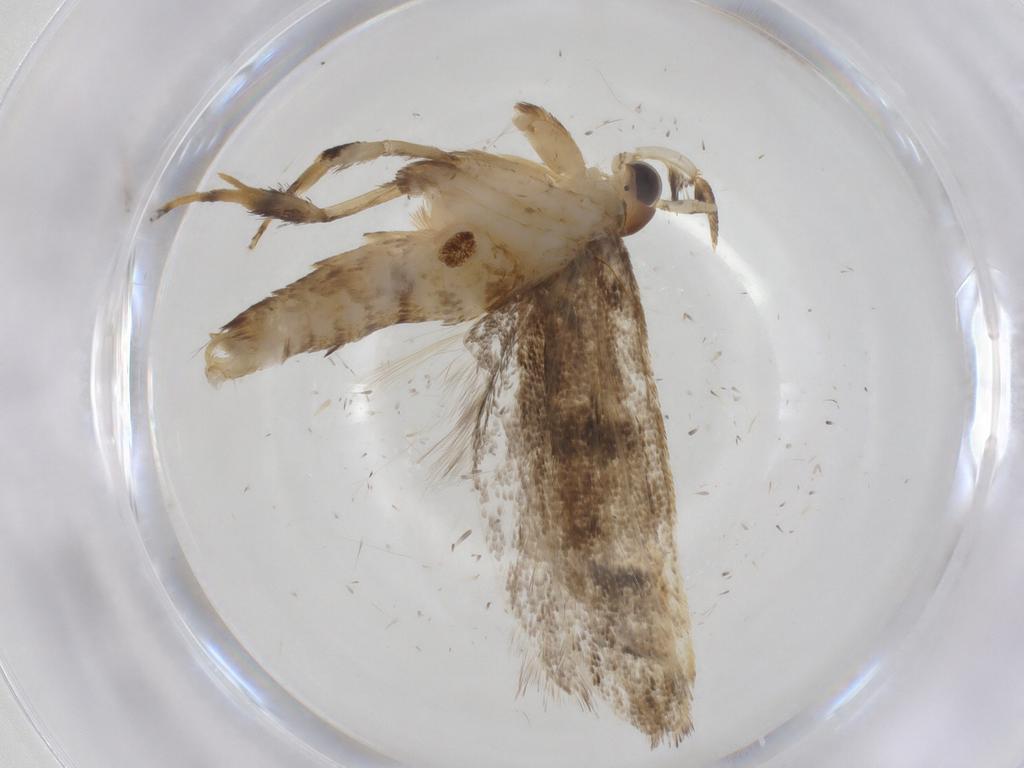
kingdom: Animalia
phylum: Arthropoda
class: Insecta
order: Lepidoptera
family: Lecithoceridae
